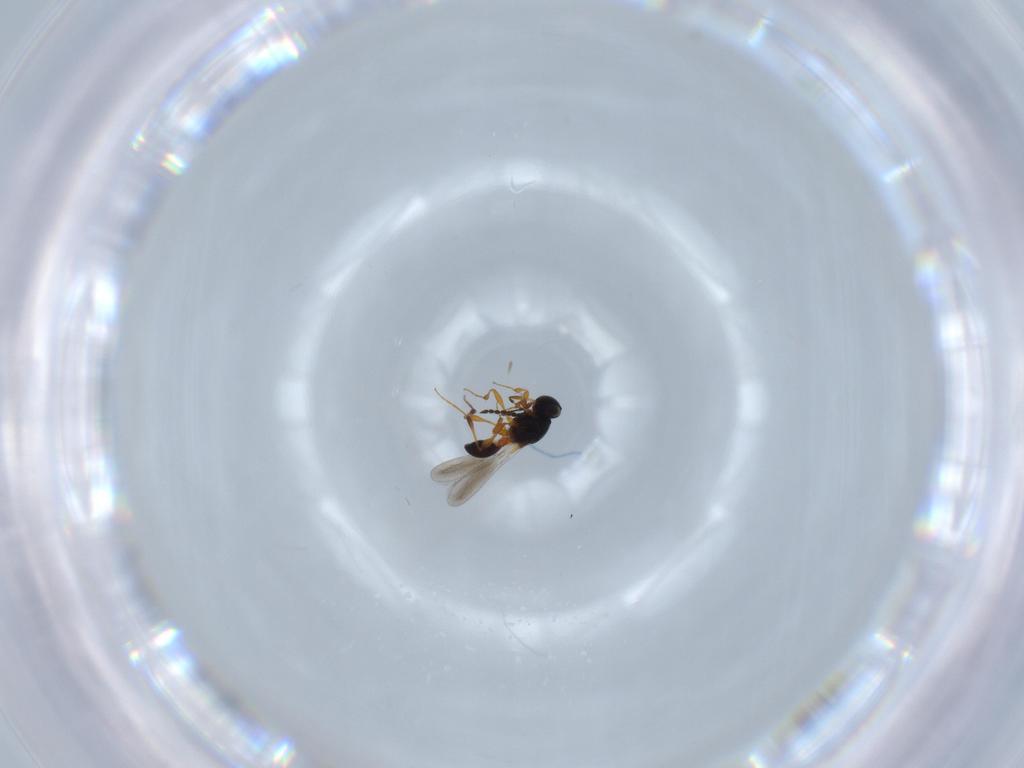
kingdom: Animalia
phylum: Arthropoda
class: Insecta
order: Hymenoptera
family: Platygastridae
